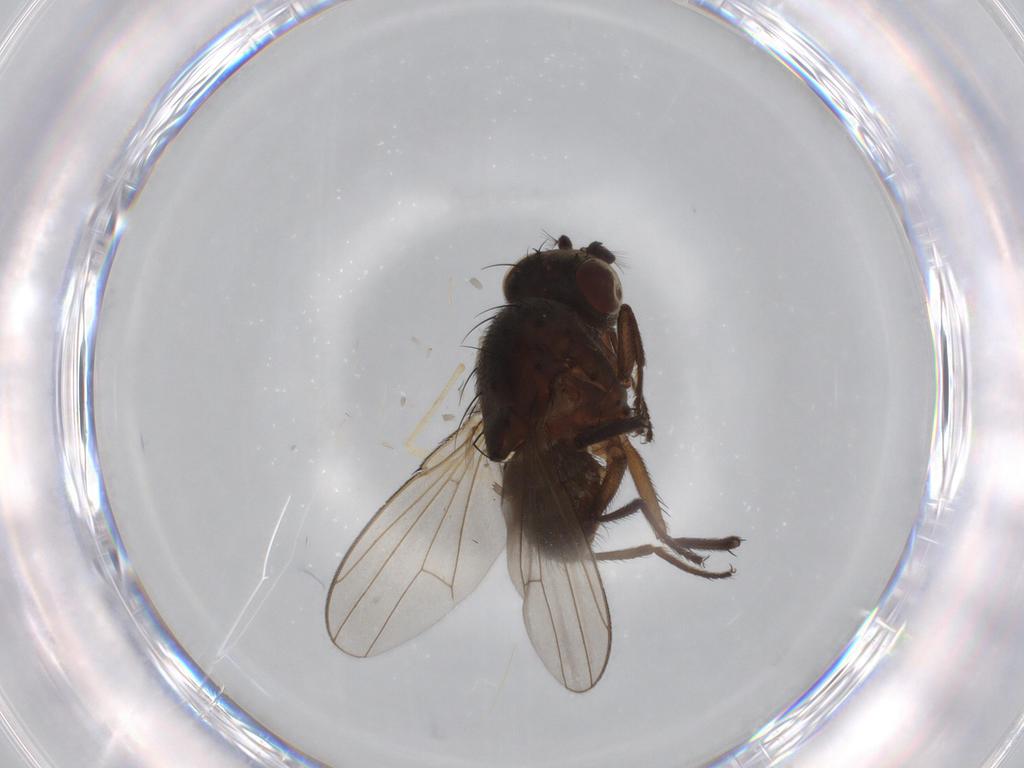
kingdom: Animalia
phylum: Arthropoda
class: Insecta
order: Diptera
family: Ephydridae
